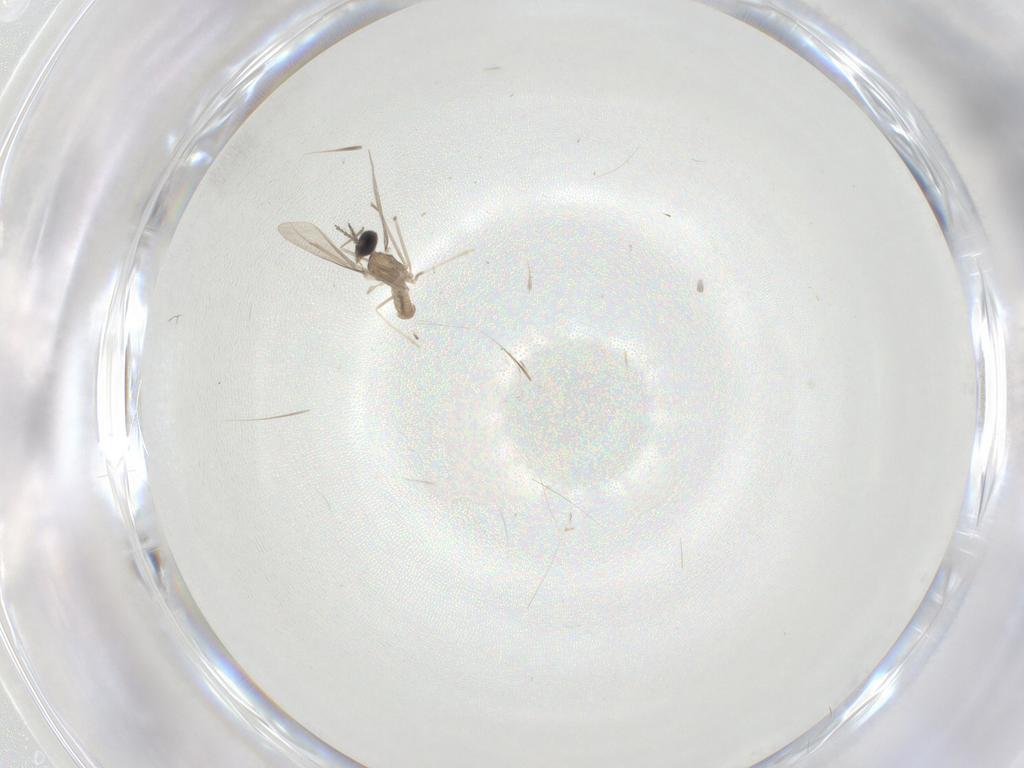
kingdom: Animalia
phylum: Arthropoda
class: Insecta
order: Diptera
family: Cecidomyiidae
